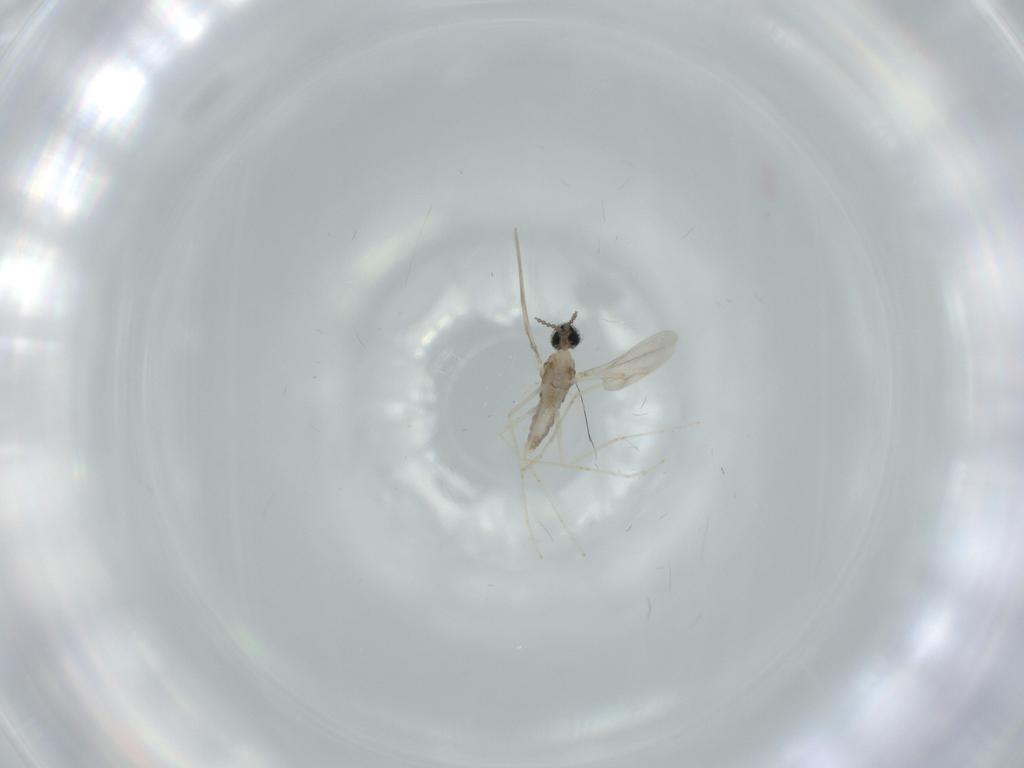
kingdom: Animalia
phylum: Arthropoda
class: Insecta
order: Diptera
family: Cecidomyiidae
